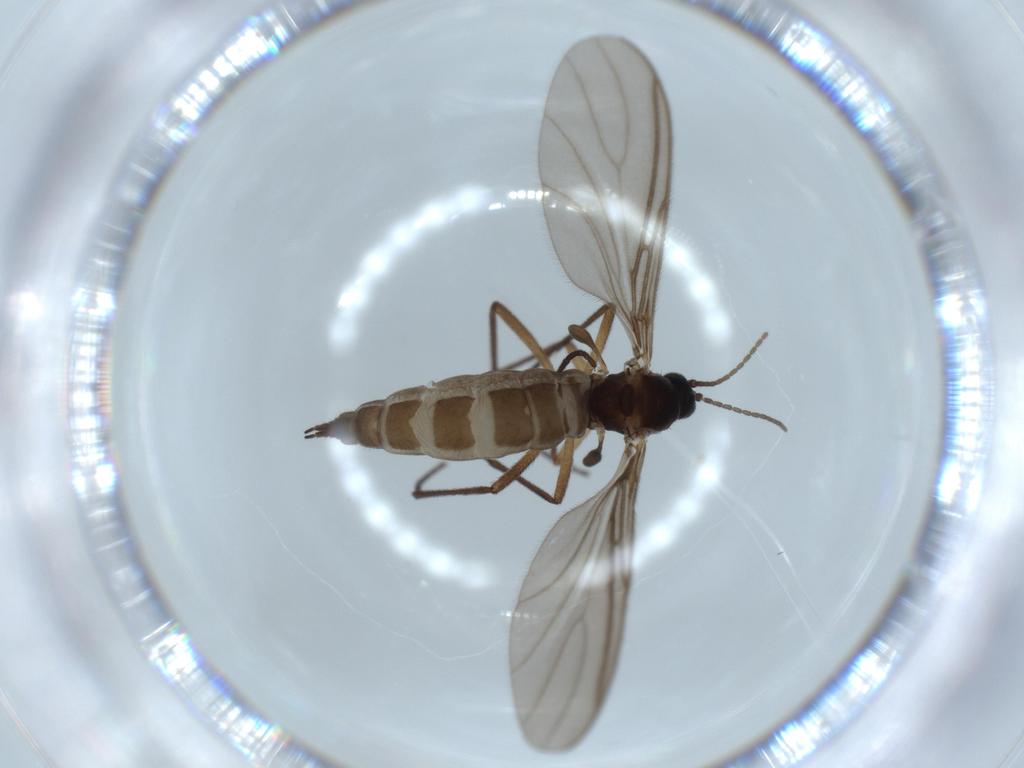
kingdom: Animalia
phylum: Arthropoda
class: Insecta
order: Diptera
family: Sciaridae
